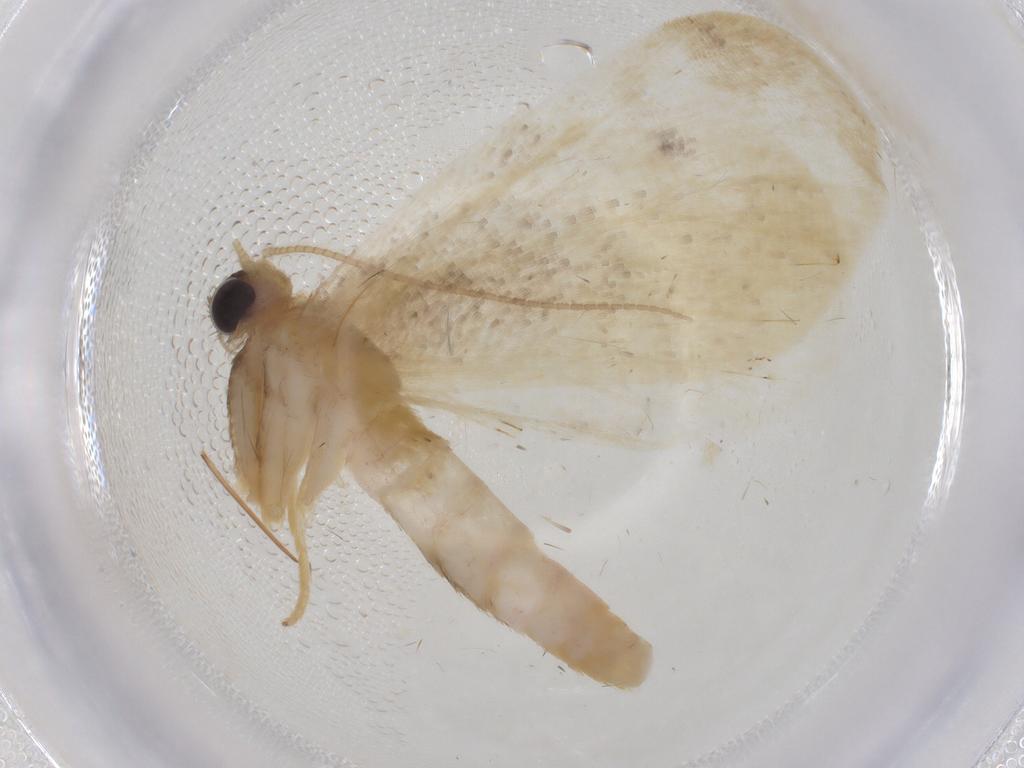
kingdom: Animalia
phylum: Arthropoda
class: Insecta
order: Lepidoptera
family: Geometridae
